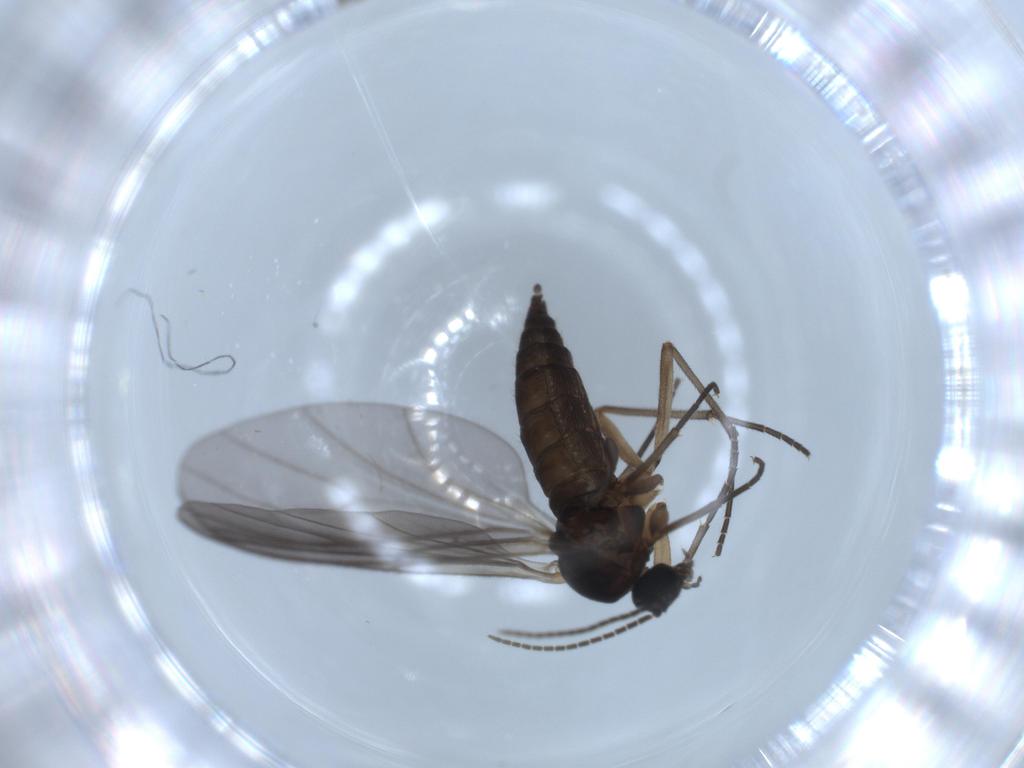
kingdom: Animalia
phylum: Arthropoda
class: Insecta
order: Diptera
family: Sciaridae
